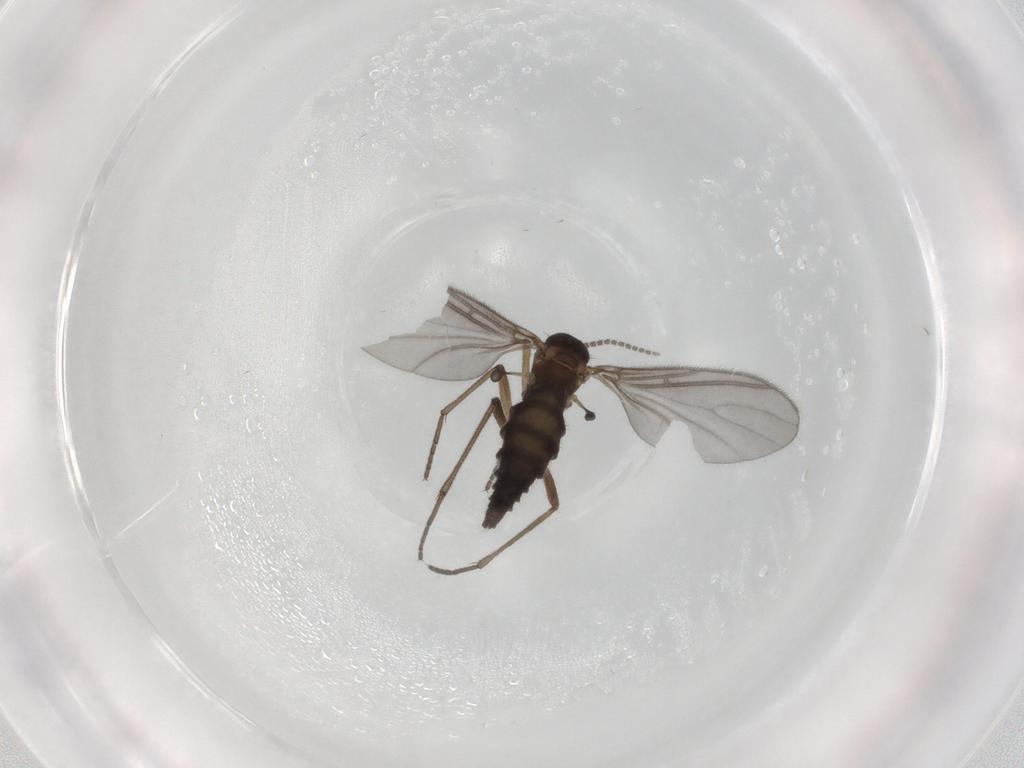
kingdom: Animalia
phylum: Arthropoda
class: Insecta
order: Diptera
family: Sciaridae
